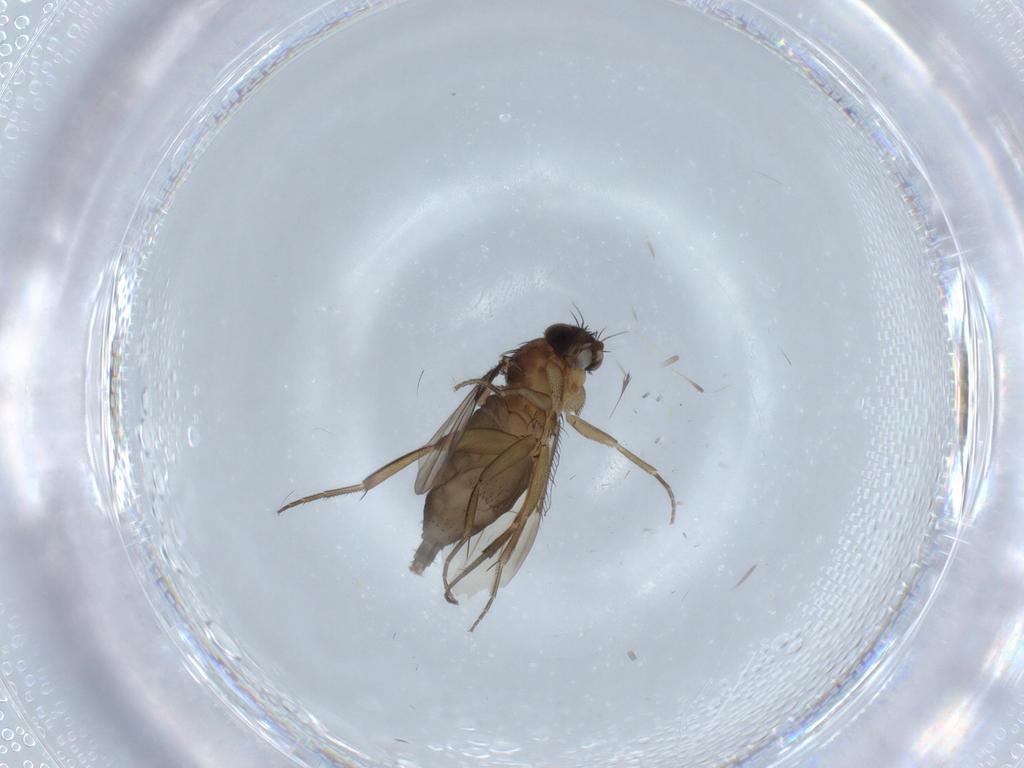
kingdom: Animalia
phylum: Arthropoda
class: Insecta
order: Diptera
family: Phoridae
